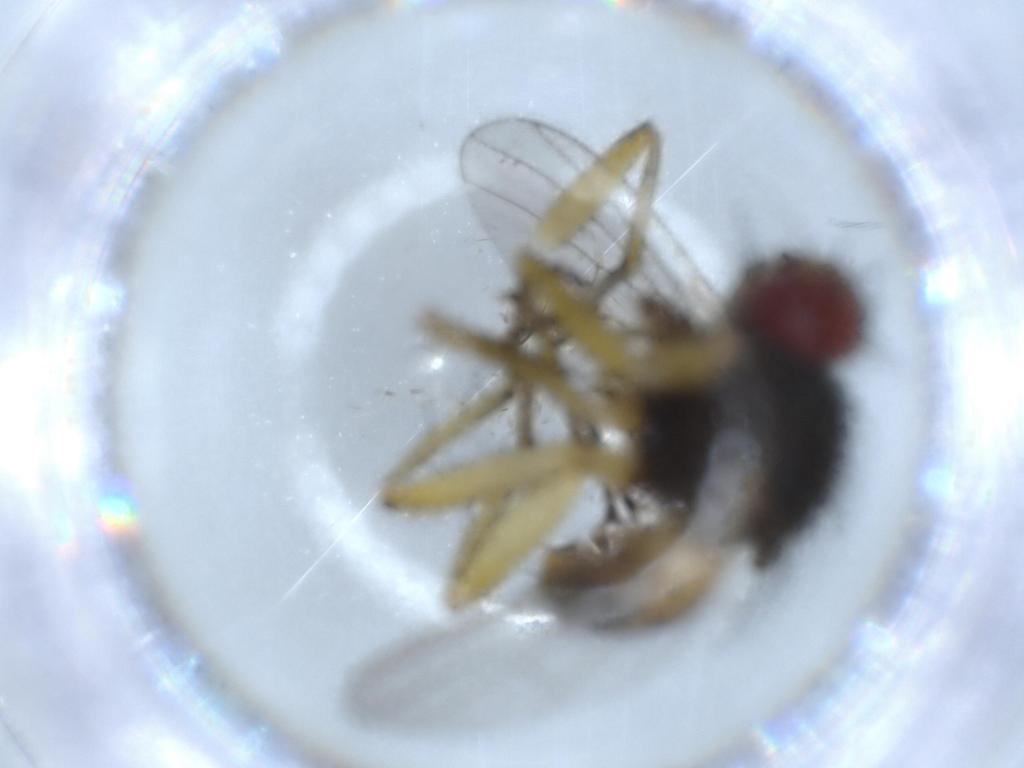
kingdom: Animalia
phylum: Arthropoda
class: Insecta
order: Diptera
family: Muscidae
